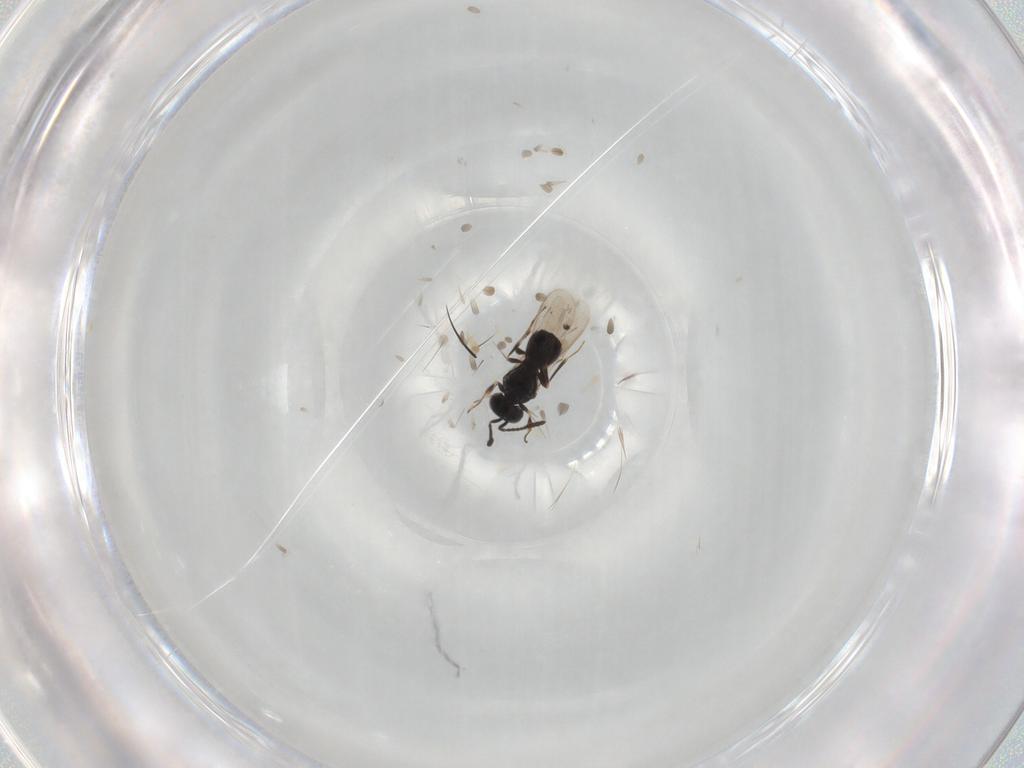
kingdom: Animalia
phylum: Arthropoda
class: Insecta
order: Hymenoptera
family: Scelionidae
